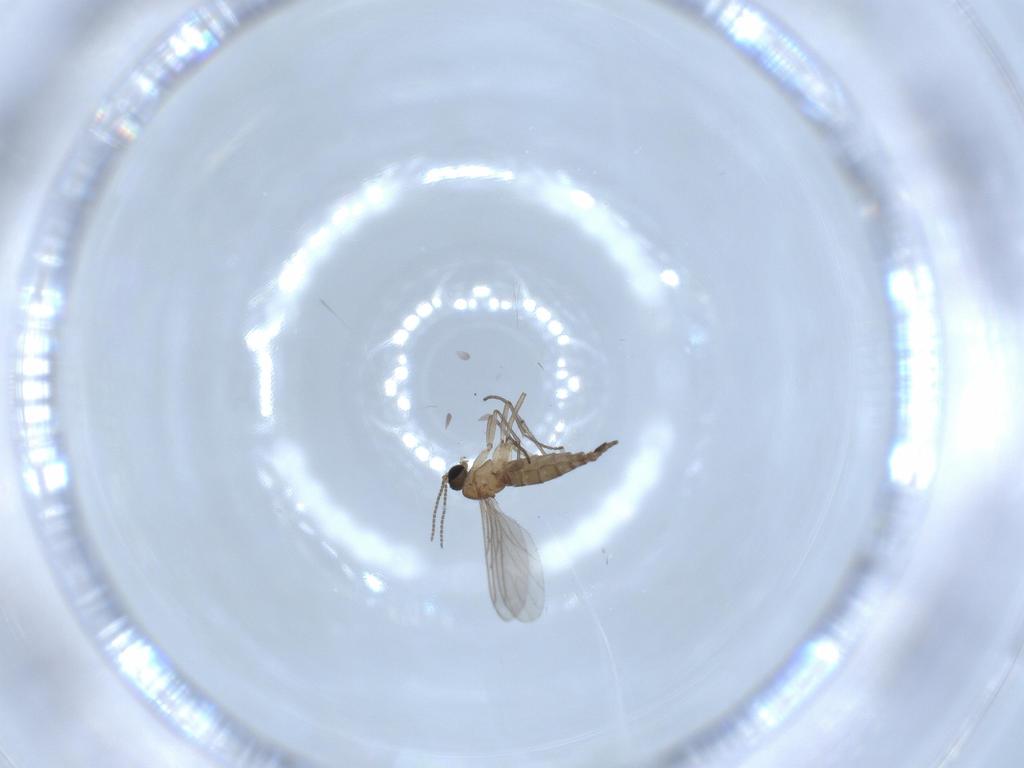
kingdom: Animalia
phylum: Arthropoda
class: Insecta
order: Diptera
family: Sciaridae
